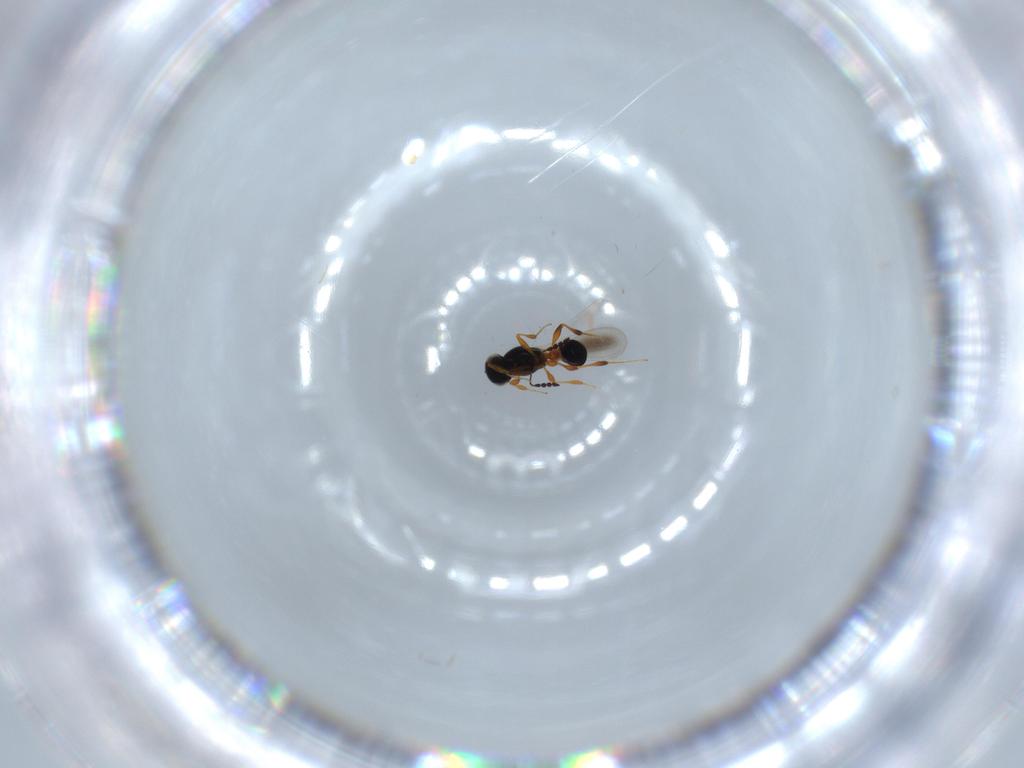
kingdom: Animalia
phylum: Arthropoda
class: Insecta
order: Hymenoptera
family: Platygastridae
